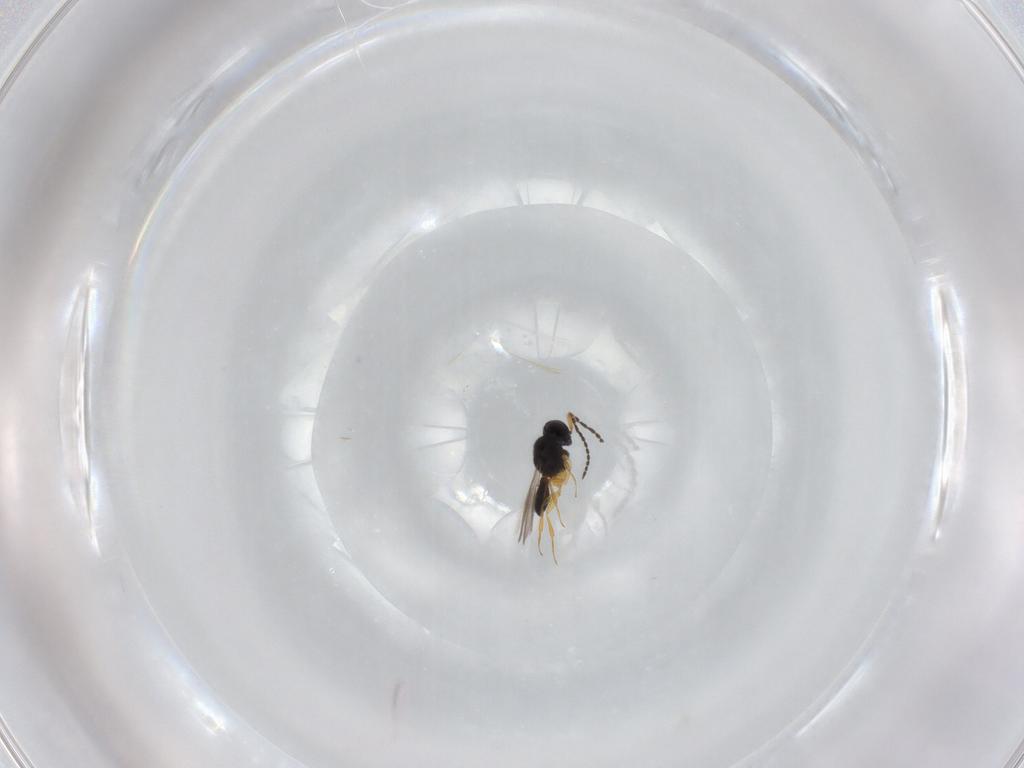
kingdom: Animalia
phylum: Arthropoda
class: Insecta
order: Hymenoptera
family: Scelionidae
